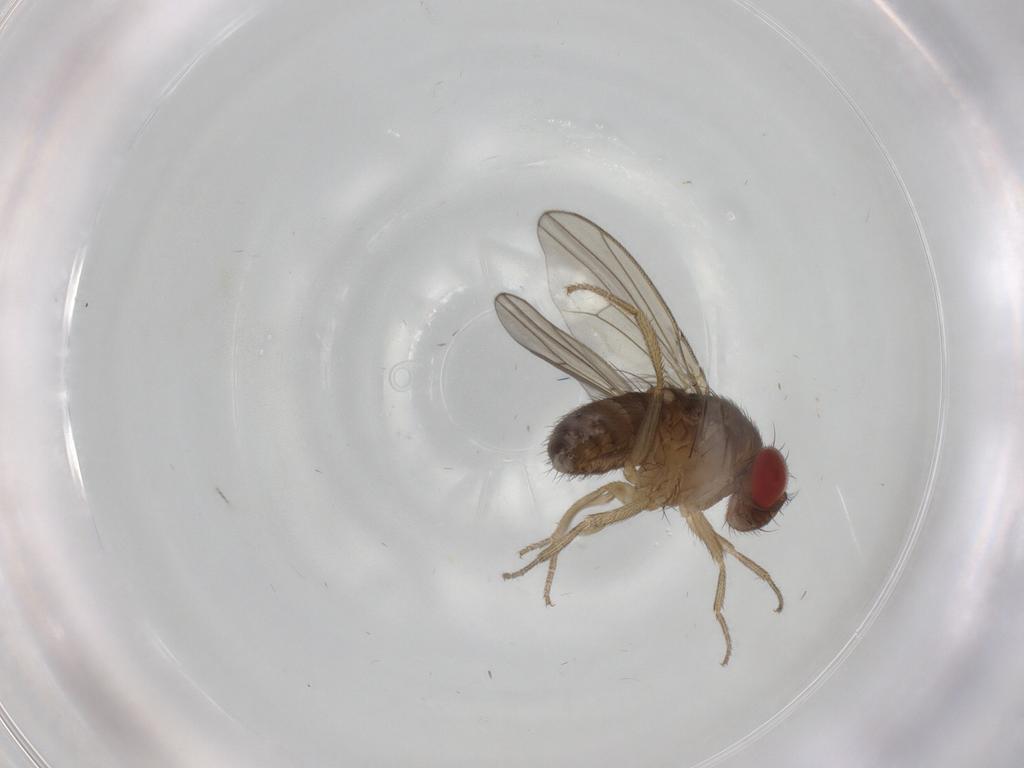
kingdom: Animalia
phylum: Arthropoda
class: Insecta
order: Diptera
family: Drosophilidae
